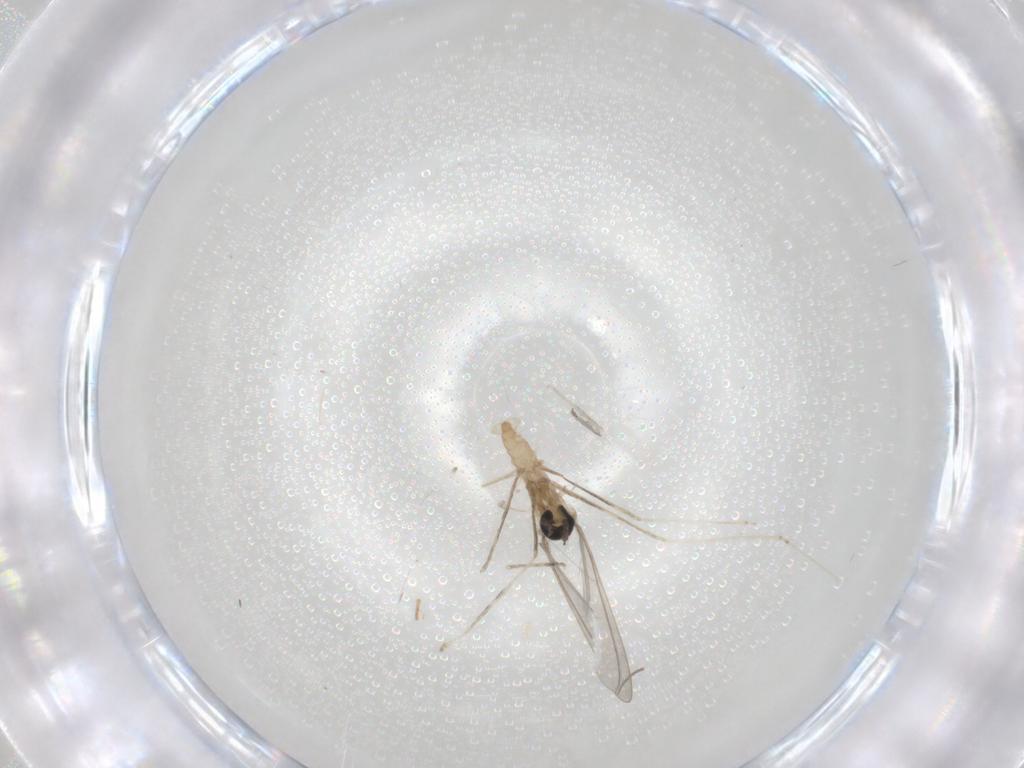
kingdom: Animalia
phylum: Arthropoda
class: Insecta
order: Diptera
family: Cecidomyiidae
